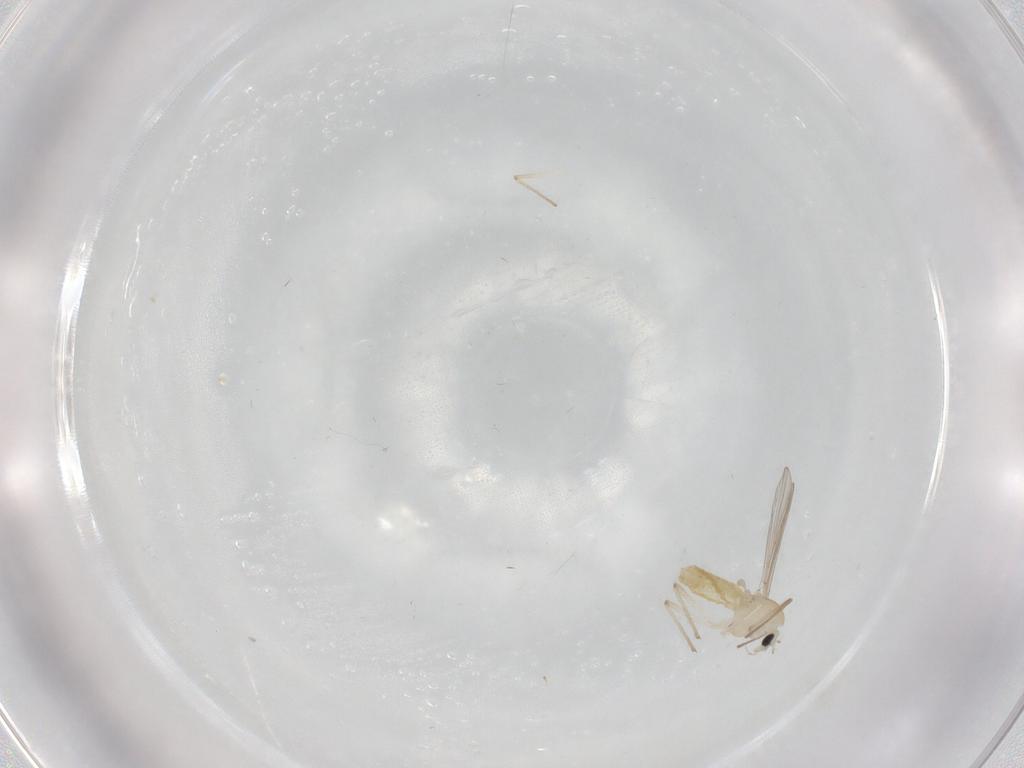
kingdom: Animalia
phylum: Arthropoda
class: Insecta
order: Diptera
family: Chironomidae
